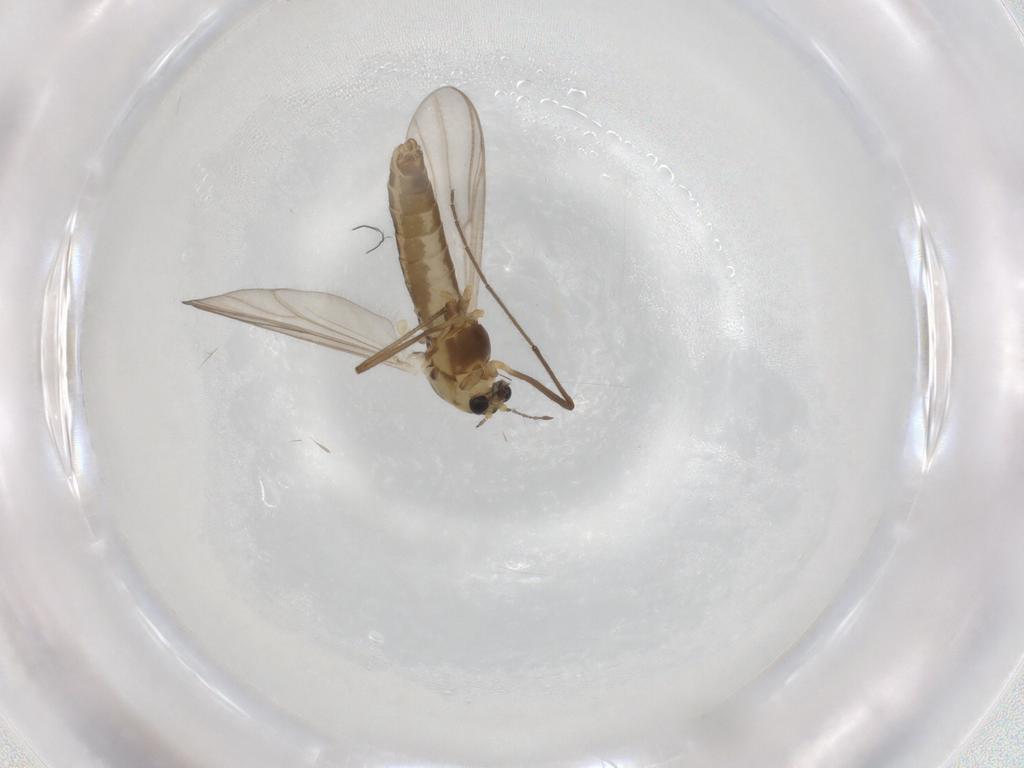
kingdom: Animalia
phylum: Arthropoda
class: Insecta
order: Diptera
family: Chironomidae
